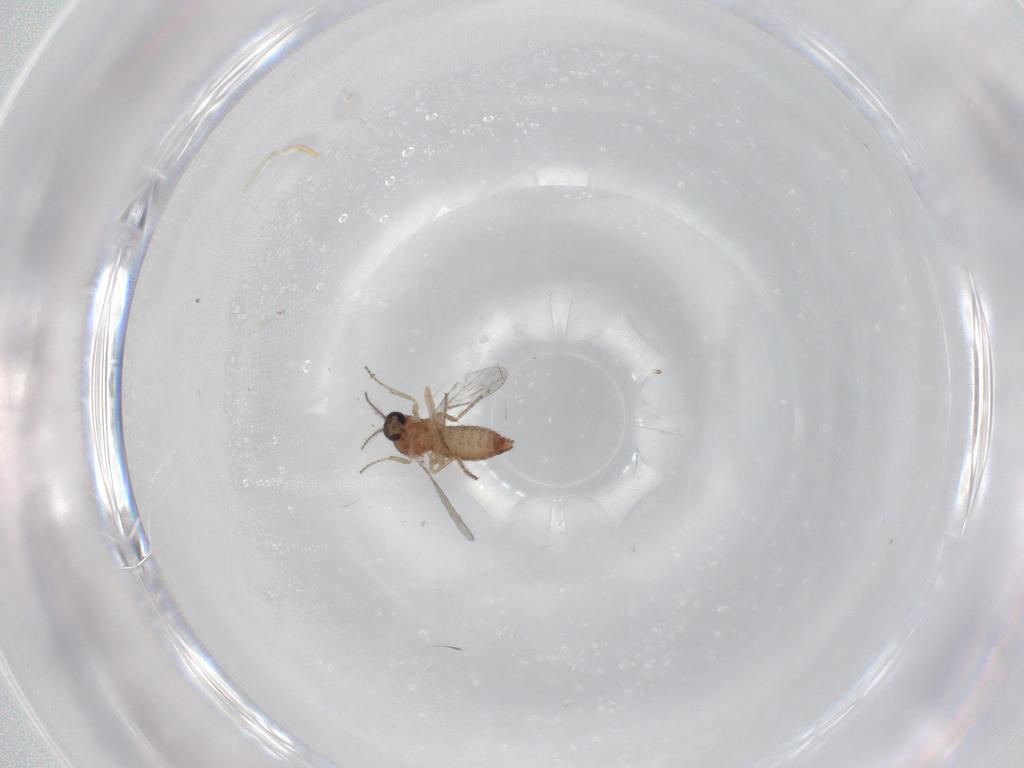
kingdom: Animalia
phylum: Arthropoda
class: Insecta
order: Diptera
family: Ceratopogonidae
